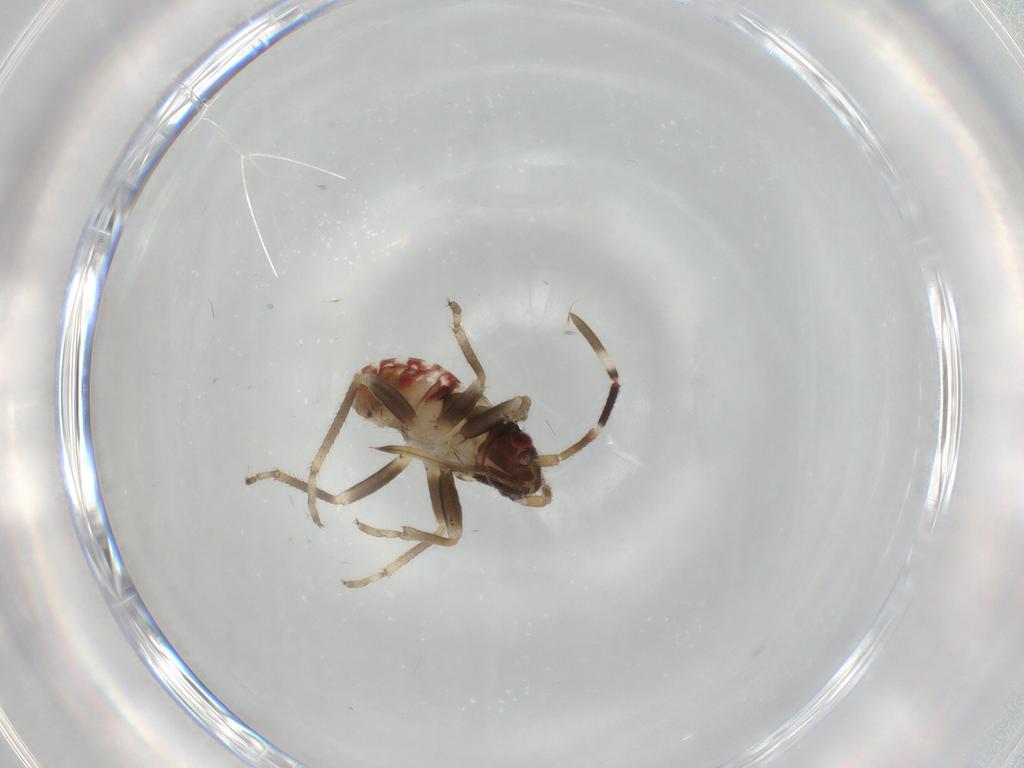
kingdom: Animalia
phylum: Arthropoda
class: Insecta
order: Hemiptera
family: Rhyparochromidae
